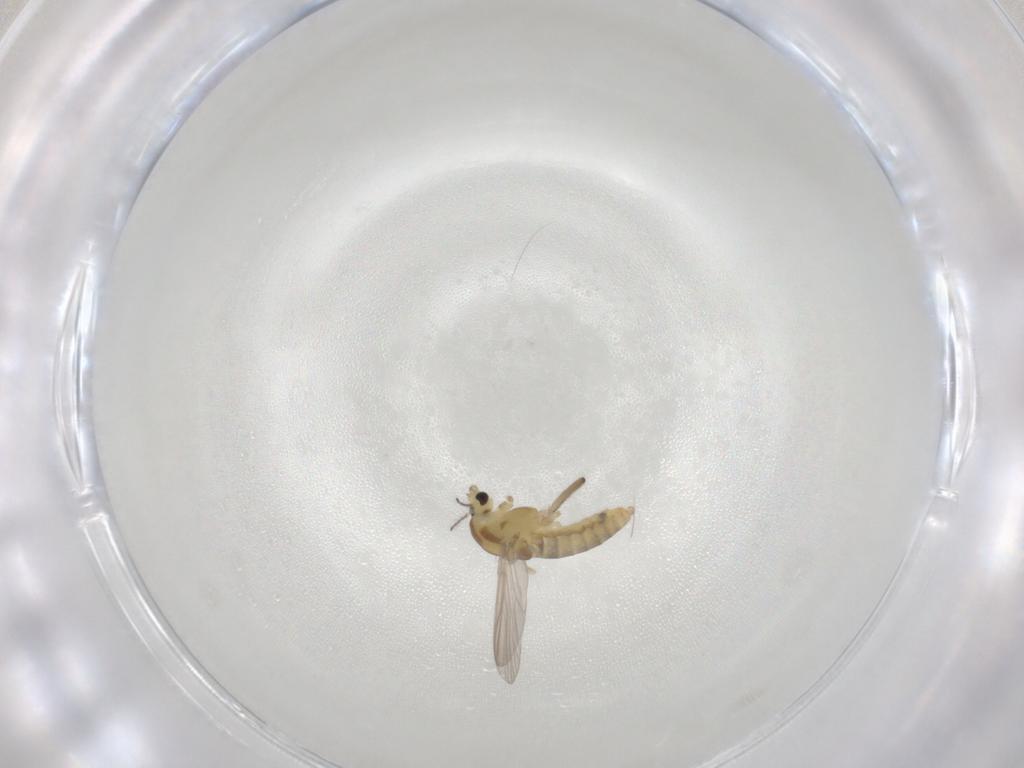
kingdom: Animalia
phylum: Arthropoda
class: Insecta
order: Diptera
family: Chironomidae
